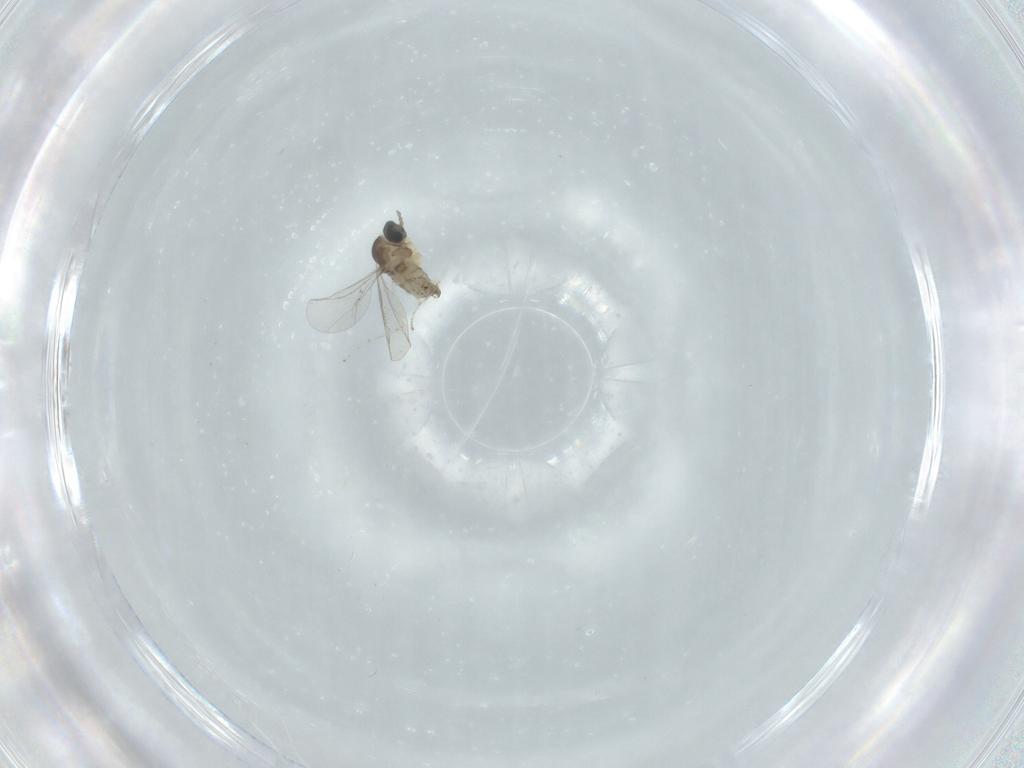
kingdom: Animalia
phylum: Arthropoda
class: Insecta
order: Diptera
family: Cecidomyiidae
